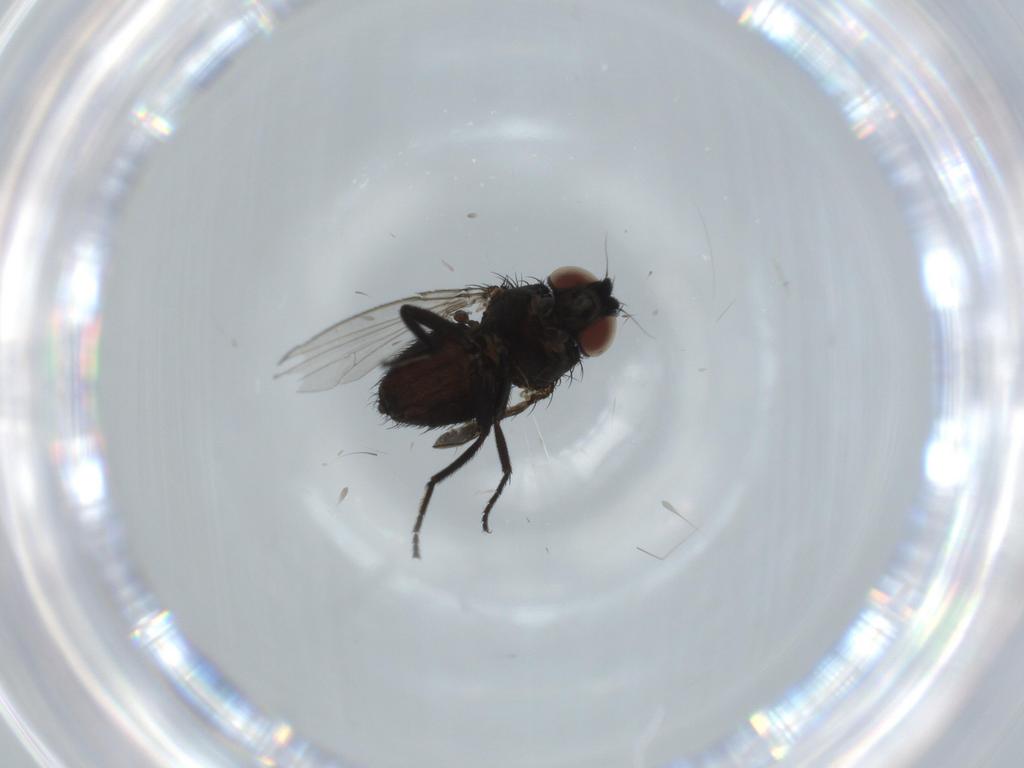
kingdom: Animalia
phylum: Arthropoda
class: Insecta
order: Diptera
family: Ceratopogonidae
